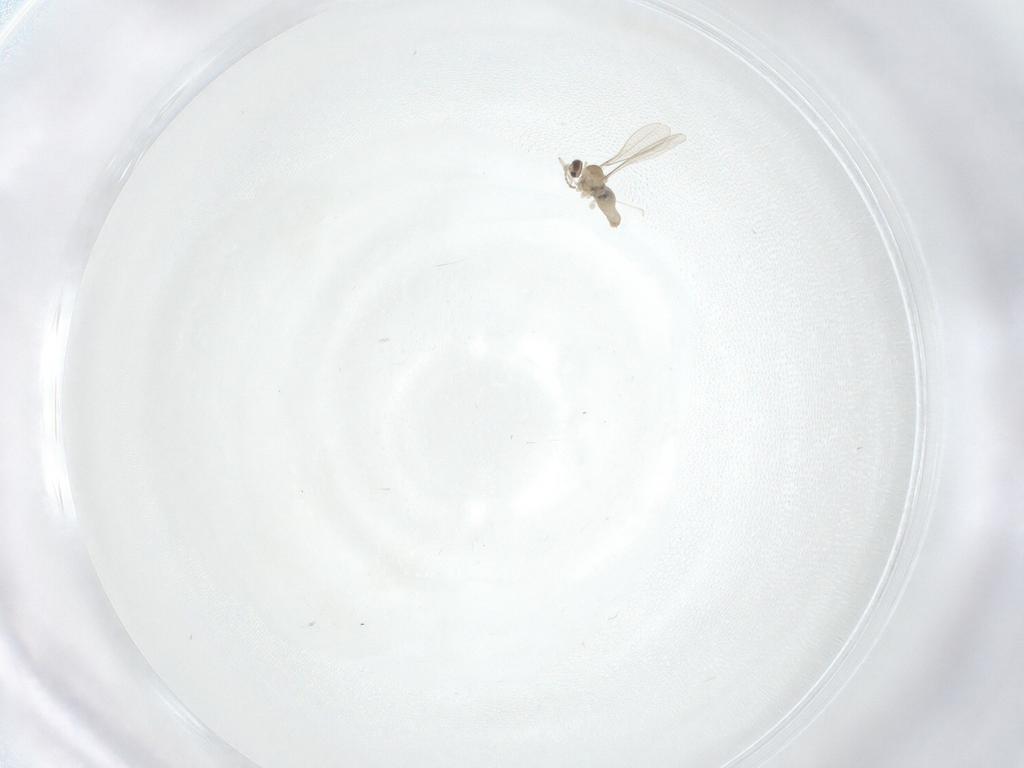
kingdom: Animalia
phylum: Arthropoda
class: Insecta
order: Diptera
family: Cecidomyiidae
